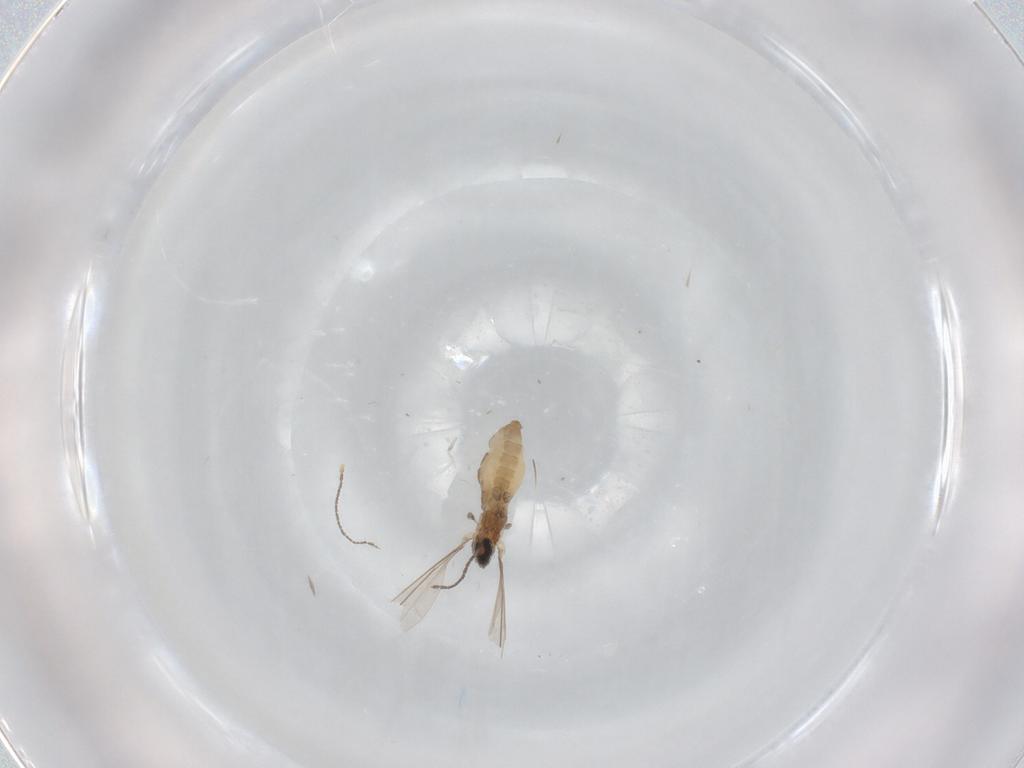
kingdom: Animalia
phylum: Arthropoda
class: Insecta
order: Diptera
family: Cecidomyiidae
